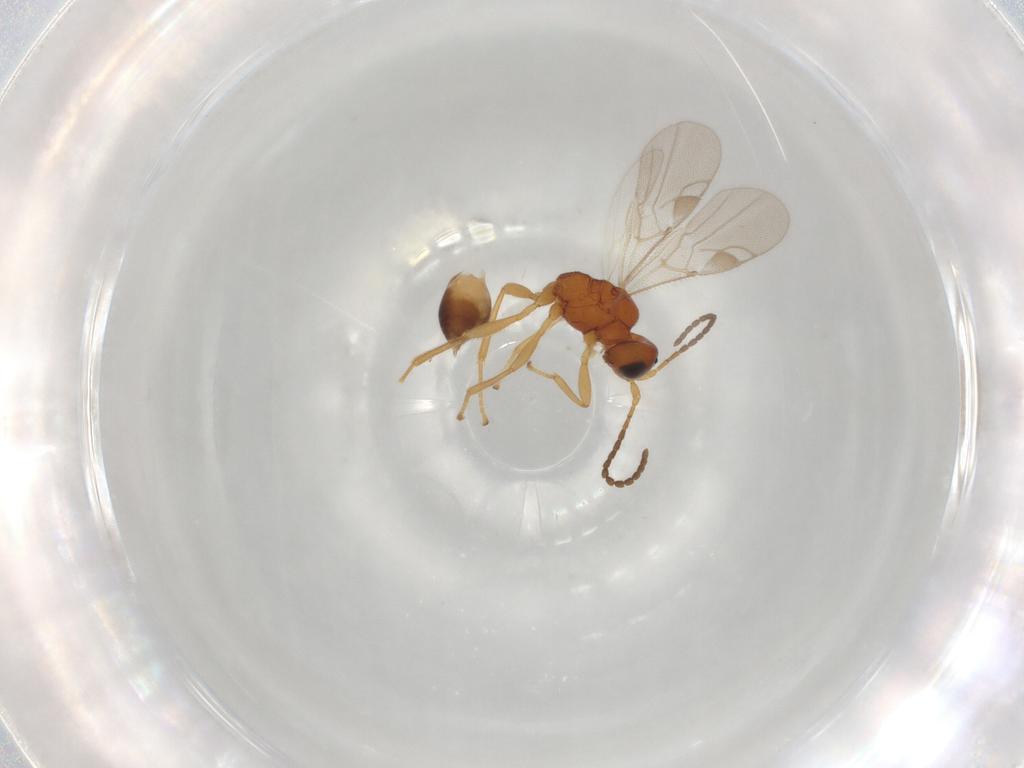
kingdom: Animalia
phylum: Arthropoda
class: Insecta
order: Hymenoptera
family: Braconidae
